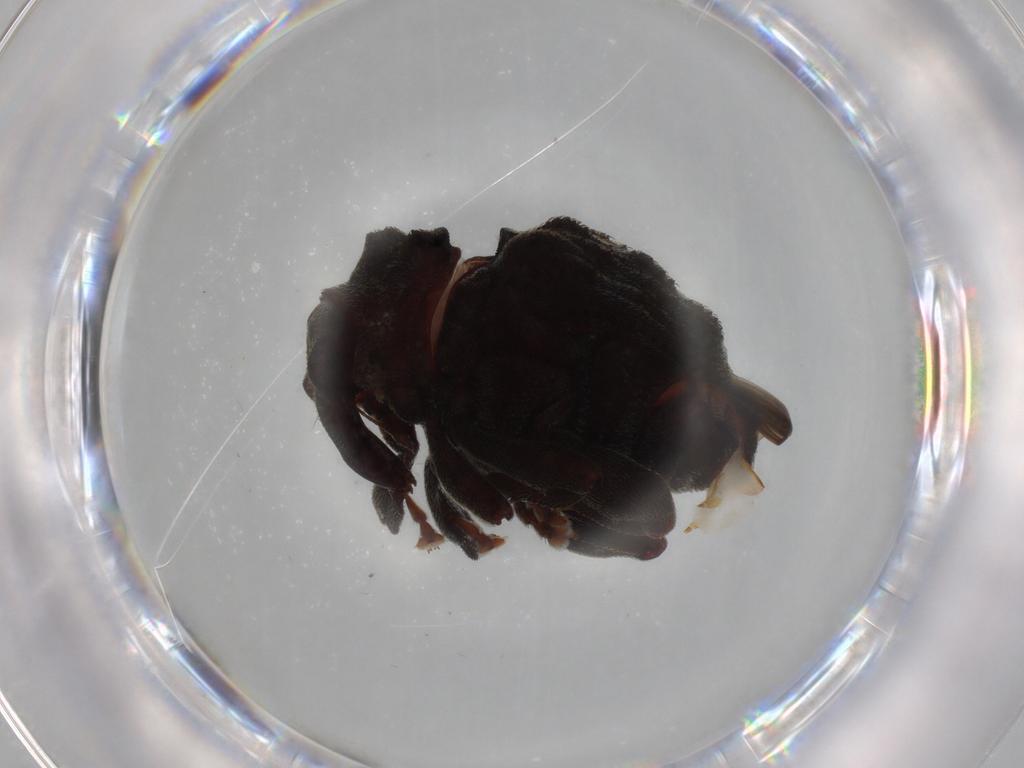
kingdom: Animalia
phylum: Arthropoda
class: Insecta
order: Coleoptera
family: Curculionidae
